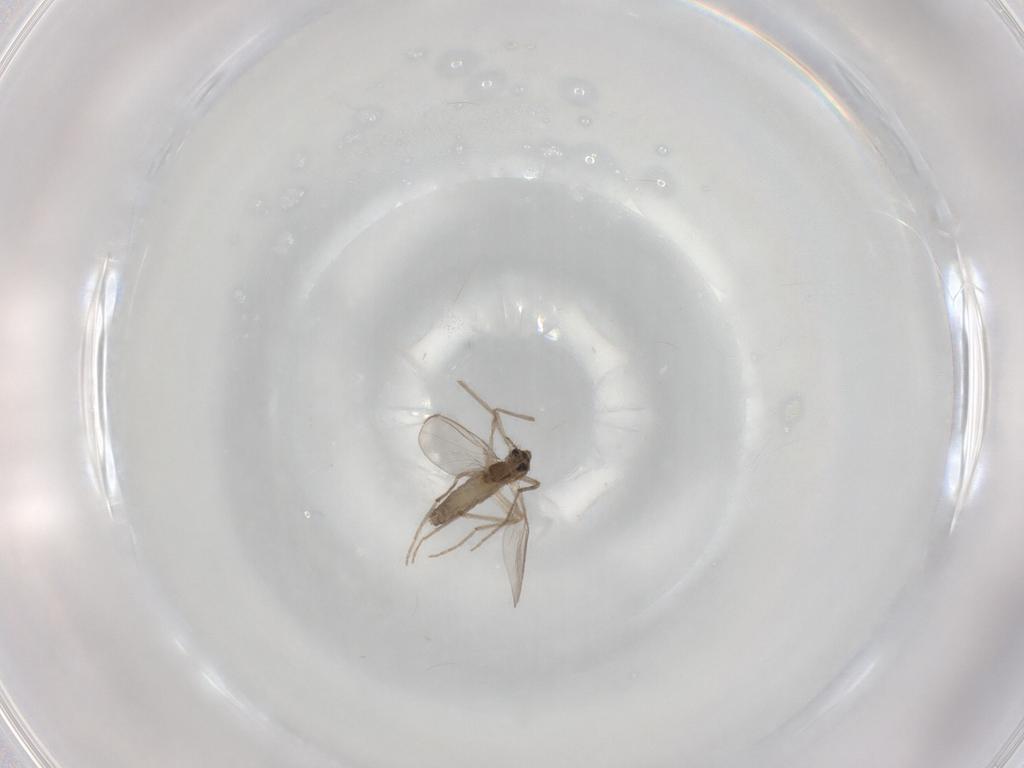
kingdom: Animalia
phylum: Arthropoda
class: Insecta
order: Diptera
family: Chironomidae
